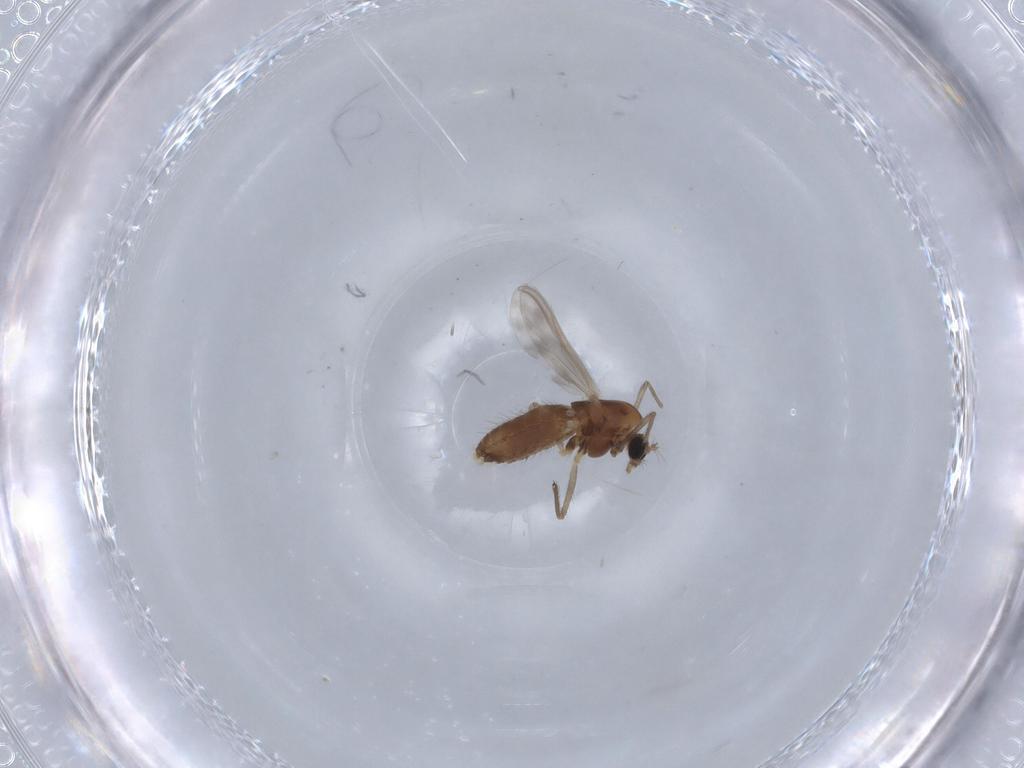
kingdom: Animalia
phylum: Arthropoda
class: Insecta
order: Diptera
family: Chironomidae
